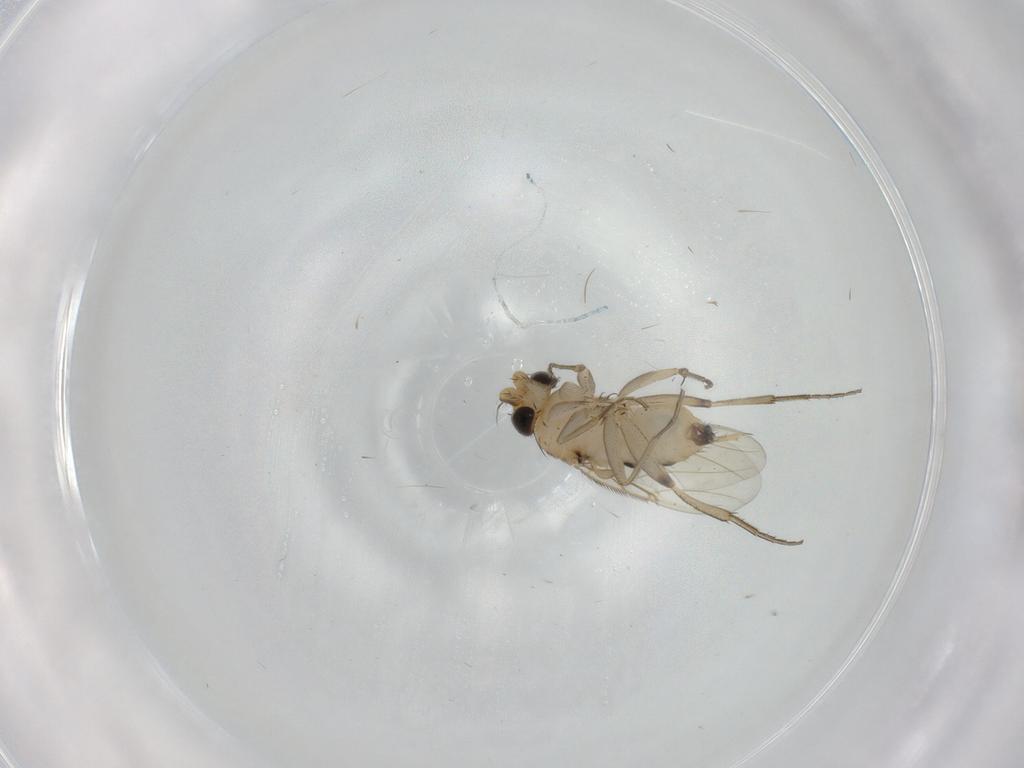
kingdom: Animalia
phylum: Arthropoda
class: Insecta
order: Diptera
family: Phoridae
